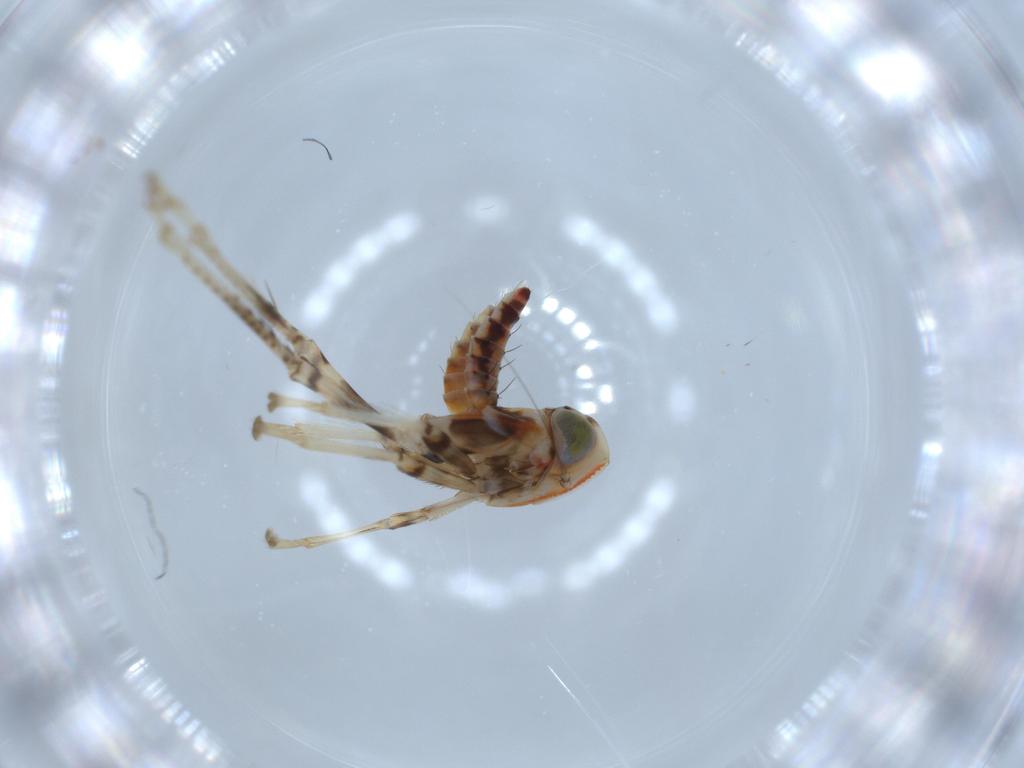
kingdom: Animalia
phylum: Arthropoda
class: Insecta
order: Hemiptera
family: Cicadellidae
